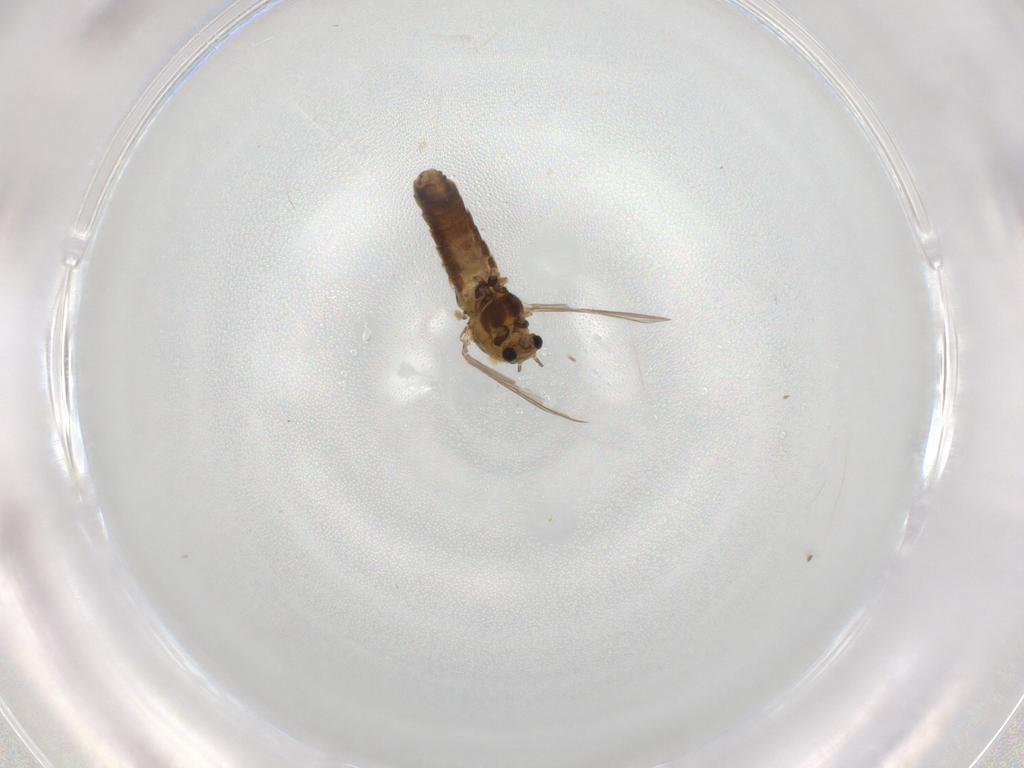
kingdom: Animalia
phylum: Arthropoda
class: Insecta
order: Diptera
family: Chironomidae
